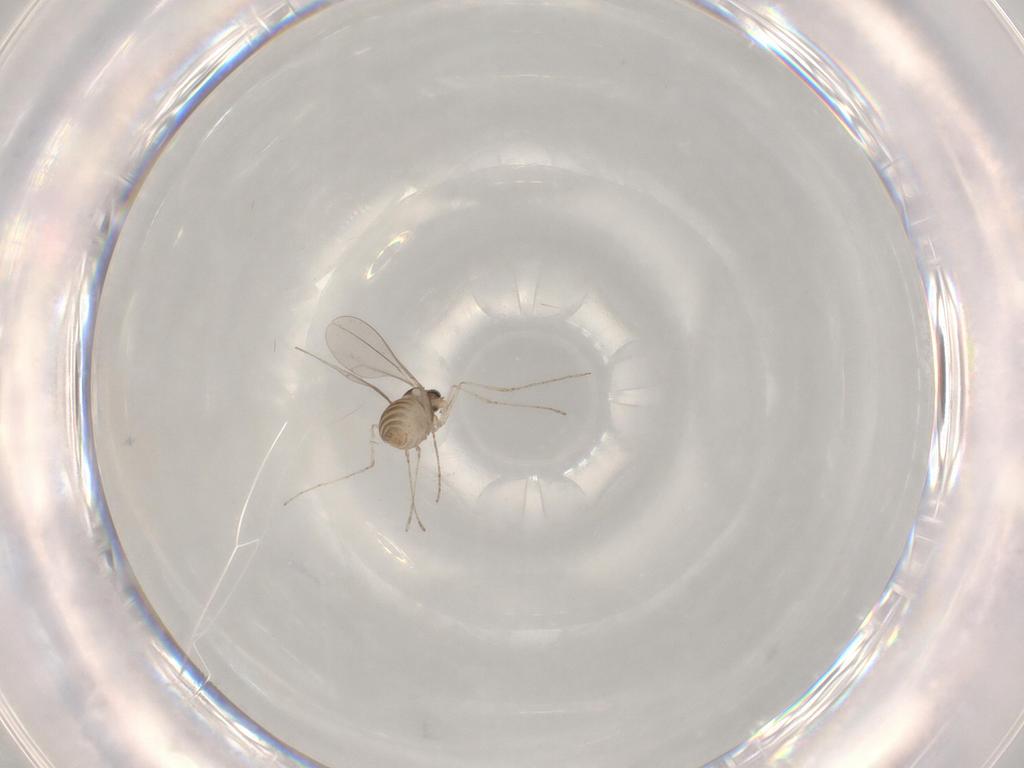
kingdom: Animalia
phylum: Arthropoda
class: Insecta
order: Diptera
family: Cecidomyiidae
